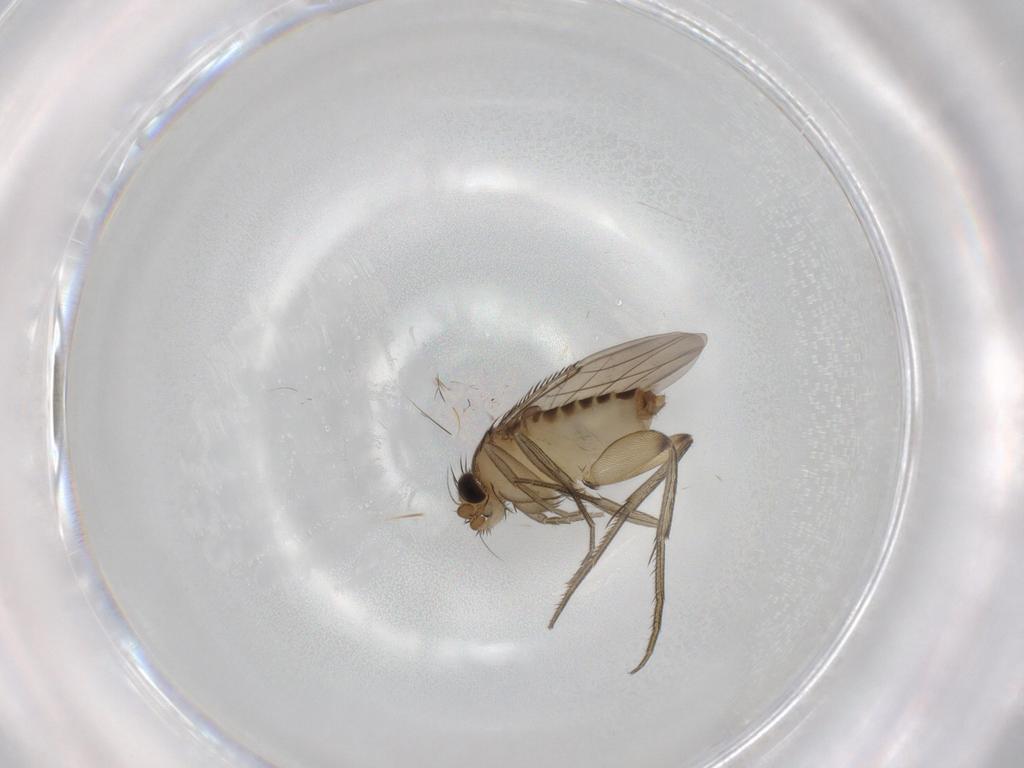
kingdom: Animalia
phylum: Arthropoda
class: Insecta
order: Diptera
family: Phoridae
